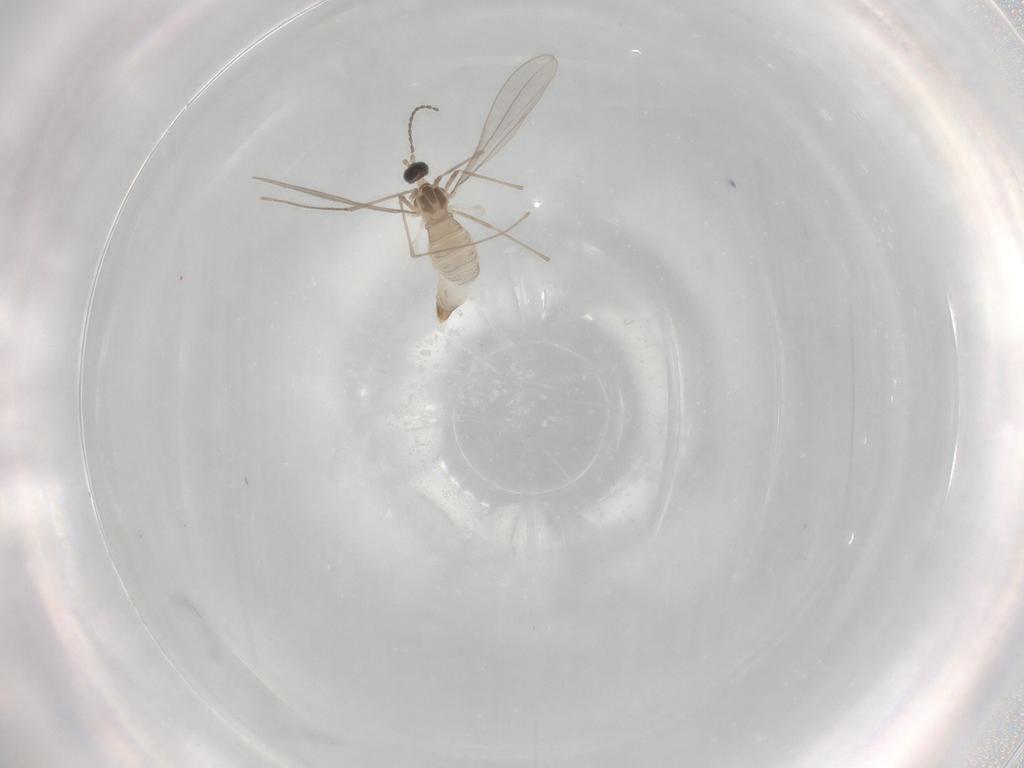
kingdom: Animalia
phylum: Arthropoda
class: Insecta
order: Diptera
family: Cecidomyiidae
